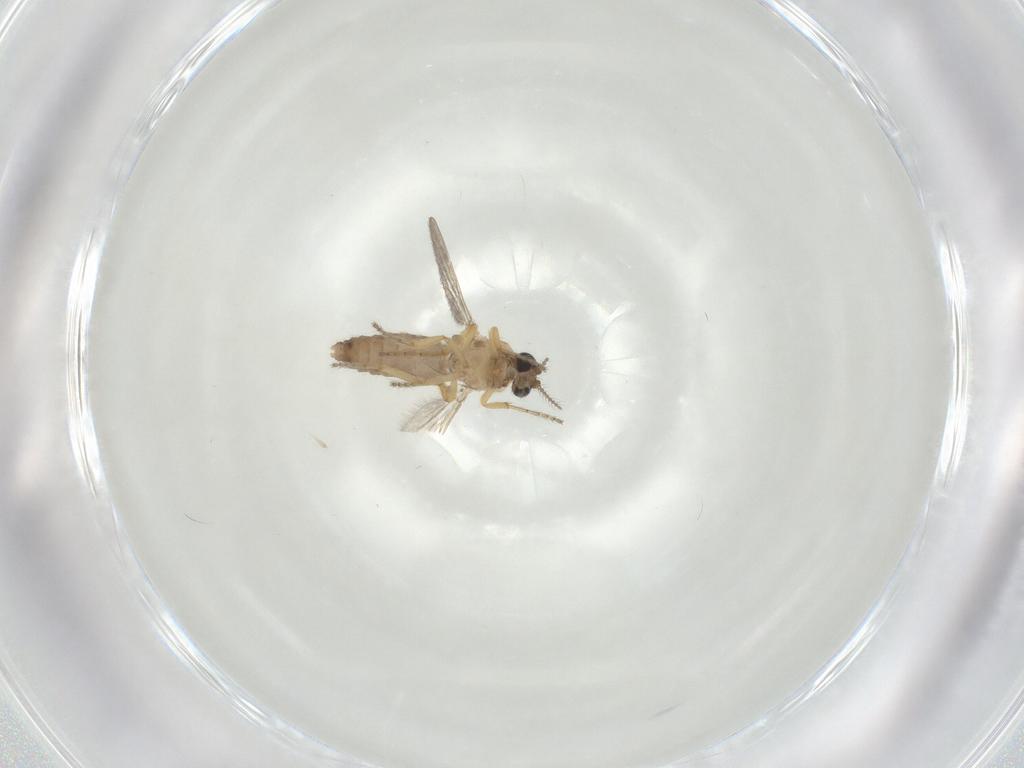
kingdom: Animalia
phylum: Arthropoda
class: Insecta
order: Diptera
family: Ceratopogonidae
